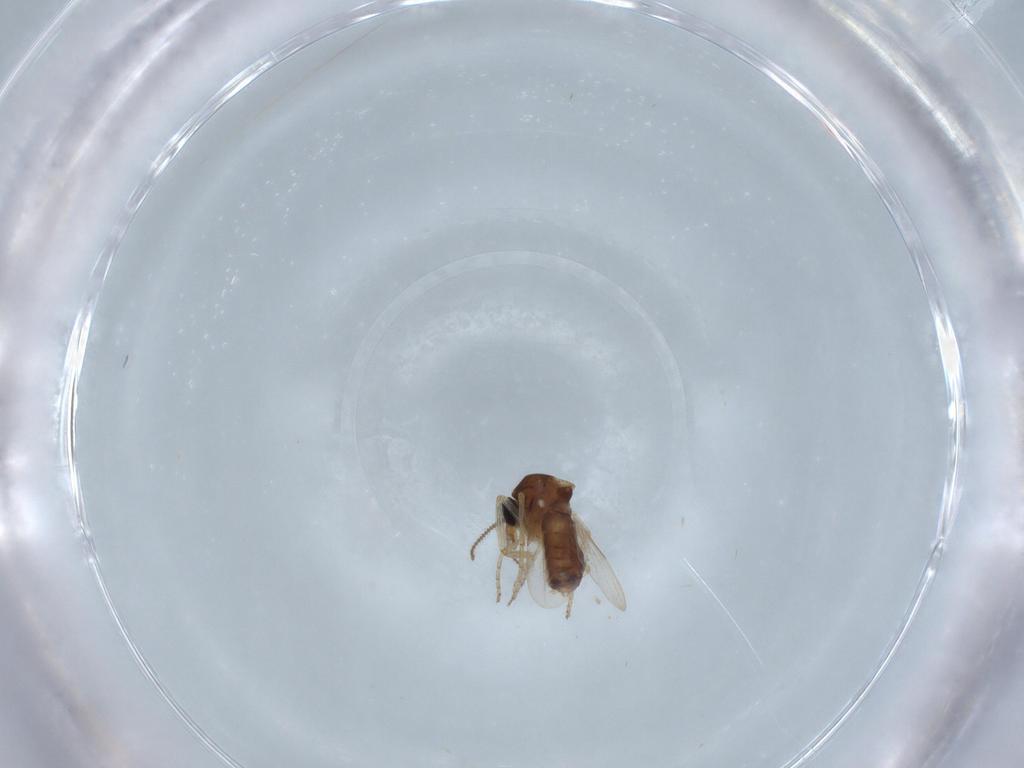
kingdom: Animalia
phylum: Arthropoda
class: Insecta
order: Diptera
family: Ceratopogonidae
